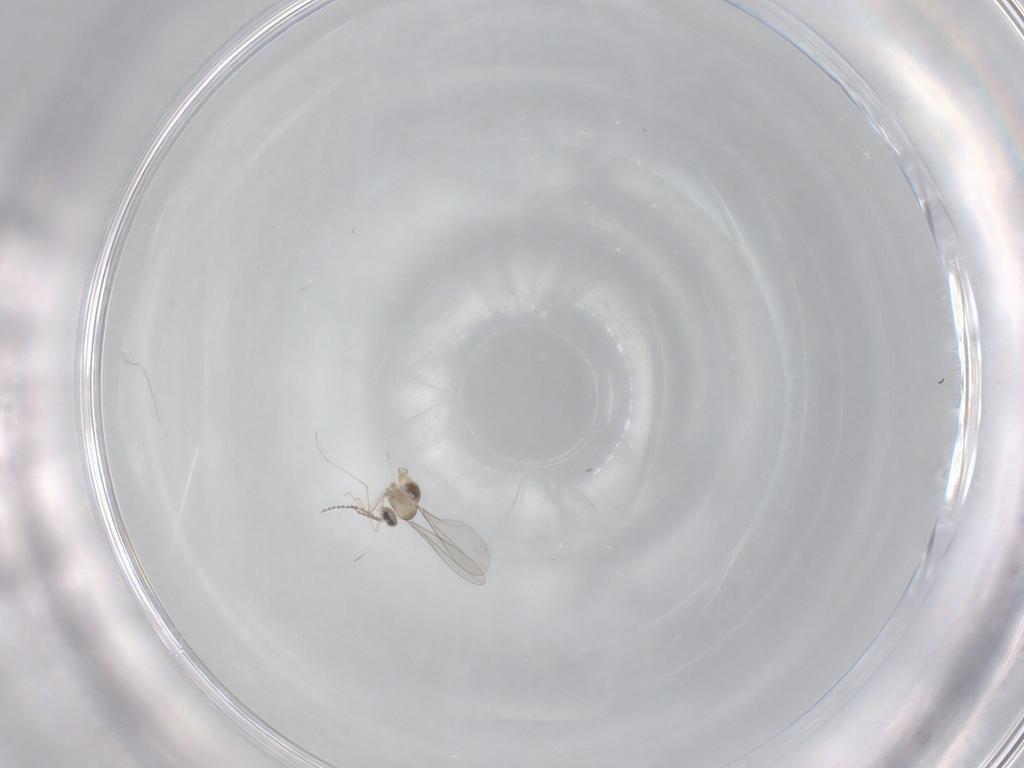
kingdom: Animalia
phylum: Arthropoda
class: Insecta
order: Diptera
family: Cecidomyiidae
